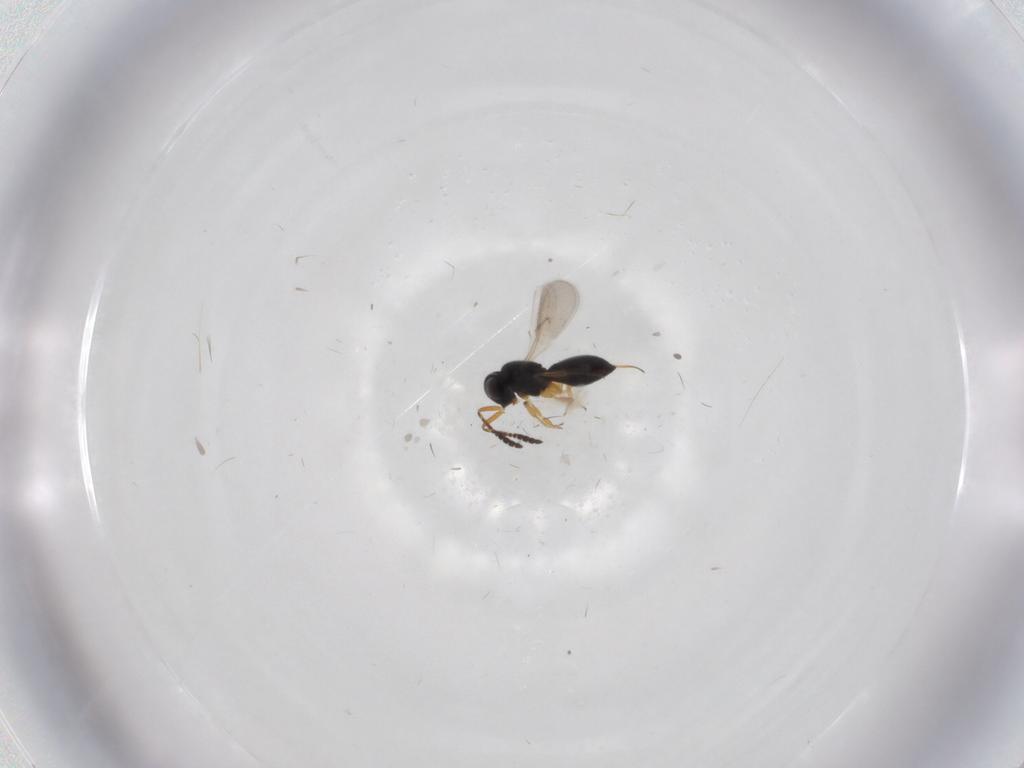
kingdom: Animalia
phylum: Arthropoda
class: Insecta
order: Hymenoptera
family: Scelionidae
